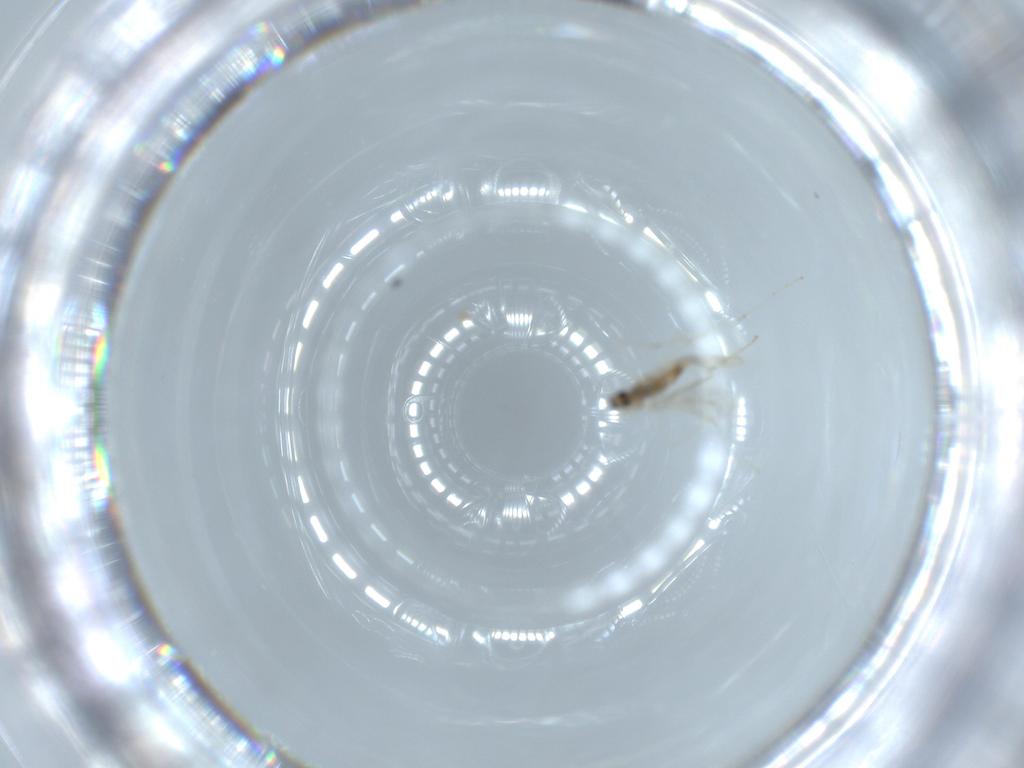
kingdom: Animalia
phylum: Arthropoda
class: Insecta
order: Diptera
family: Cecidomyiidae
